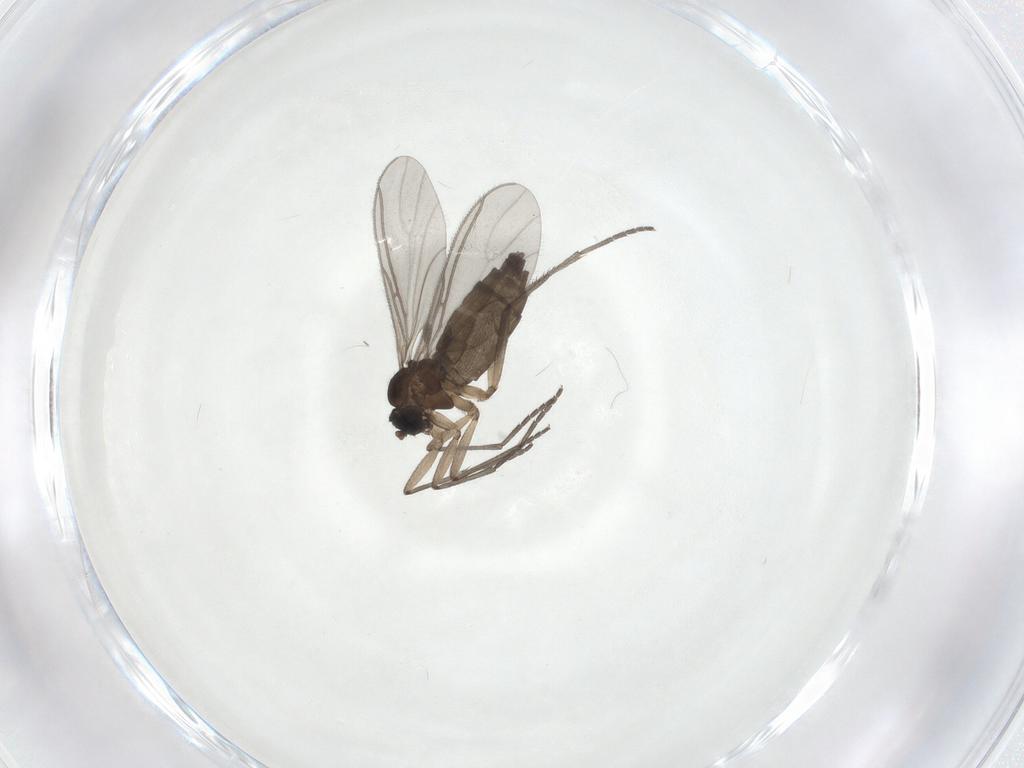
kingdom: Animalia
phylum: Arthropoda
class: Insecta
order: Diptera
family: Sciaridae
